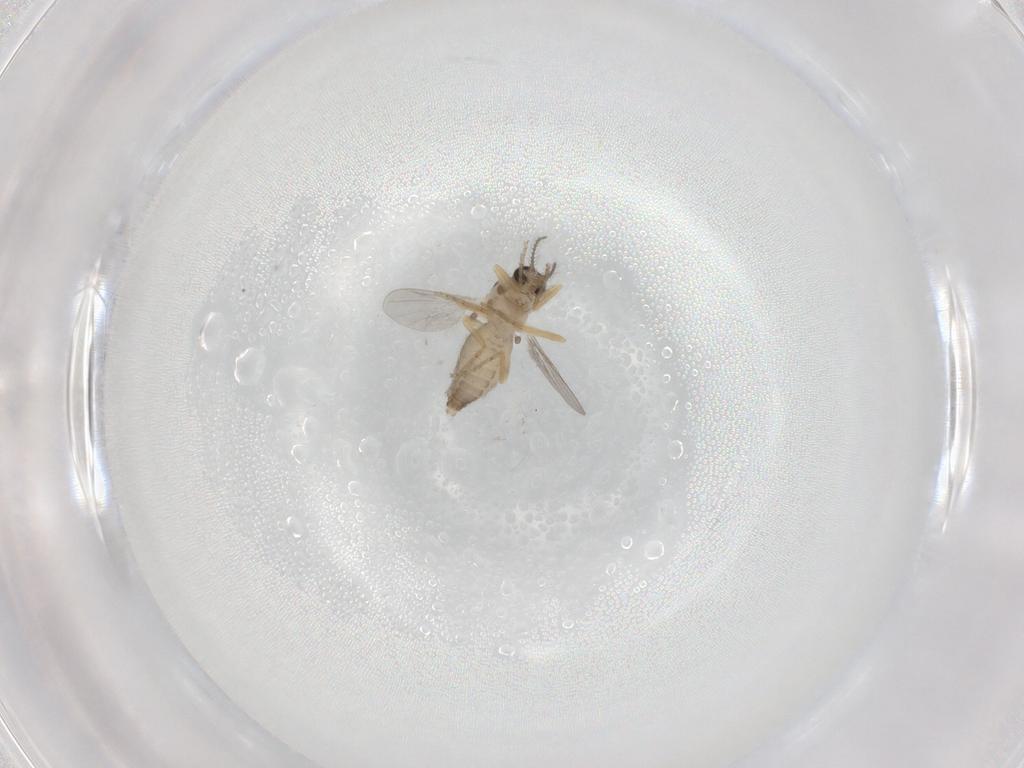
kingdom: Animalia
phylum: Arthropoda
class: Insecta
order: Diptera
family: Ceratopogonidae
